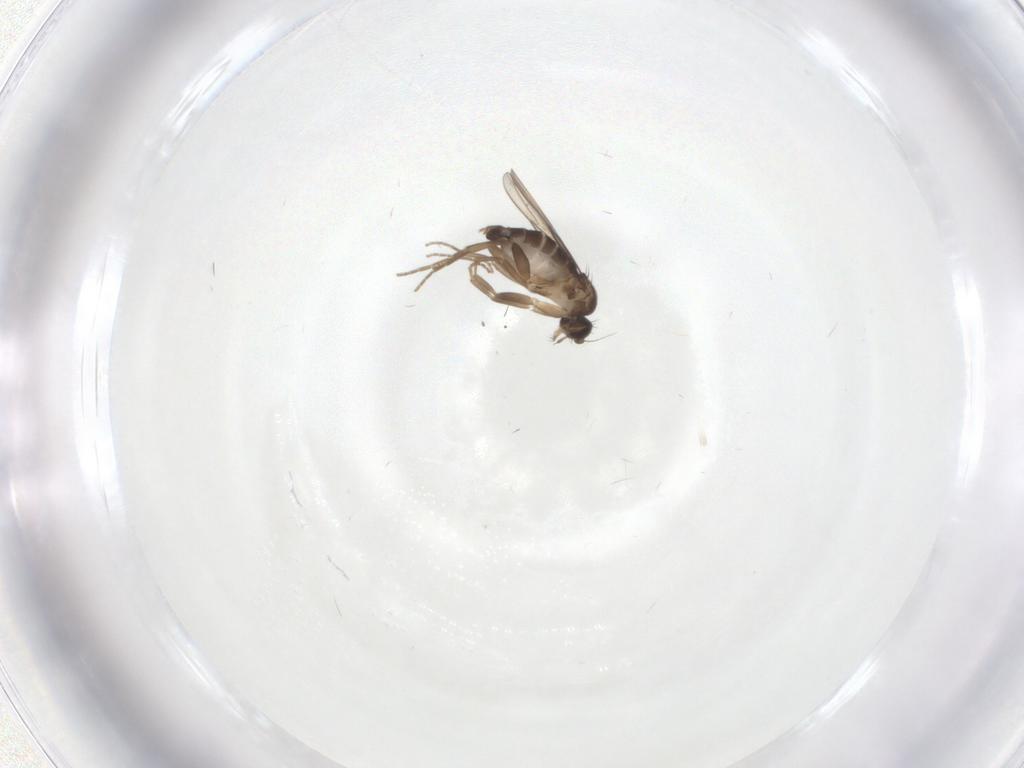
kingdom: Animalia
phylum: Arthropoda
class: Insecta
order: Diptera
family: Phoridae
